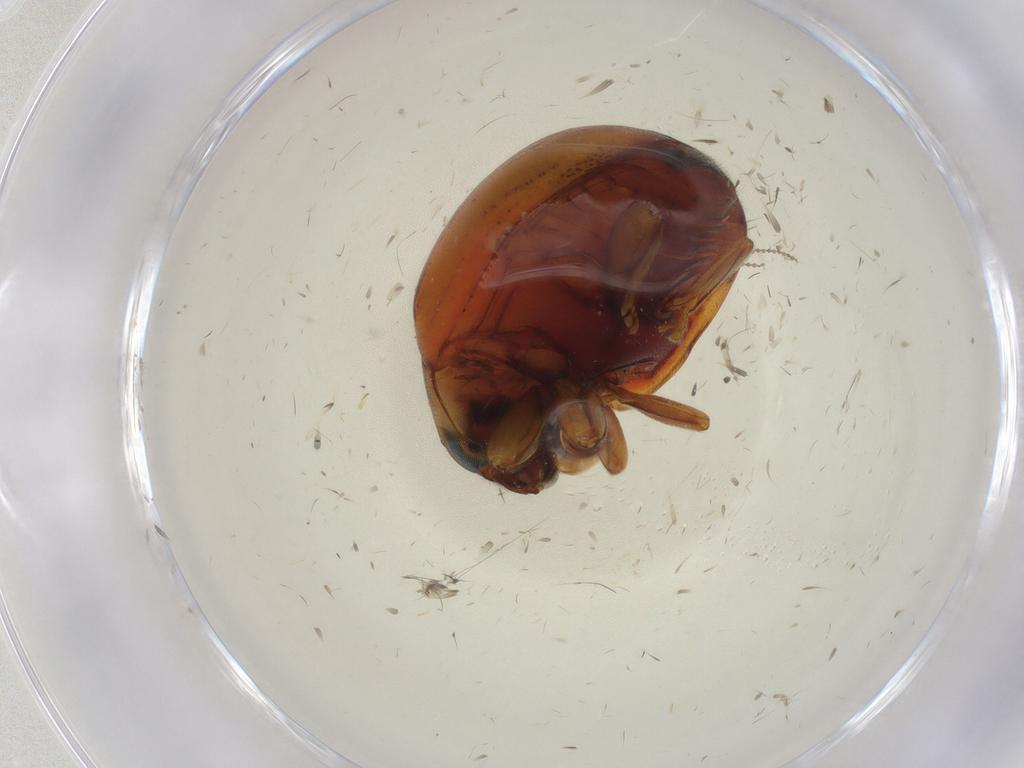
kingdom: Animalia
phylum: Arthropoda
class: Insecta
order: Coleoptera
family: Coccinellidae
